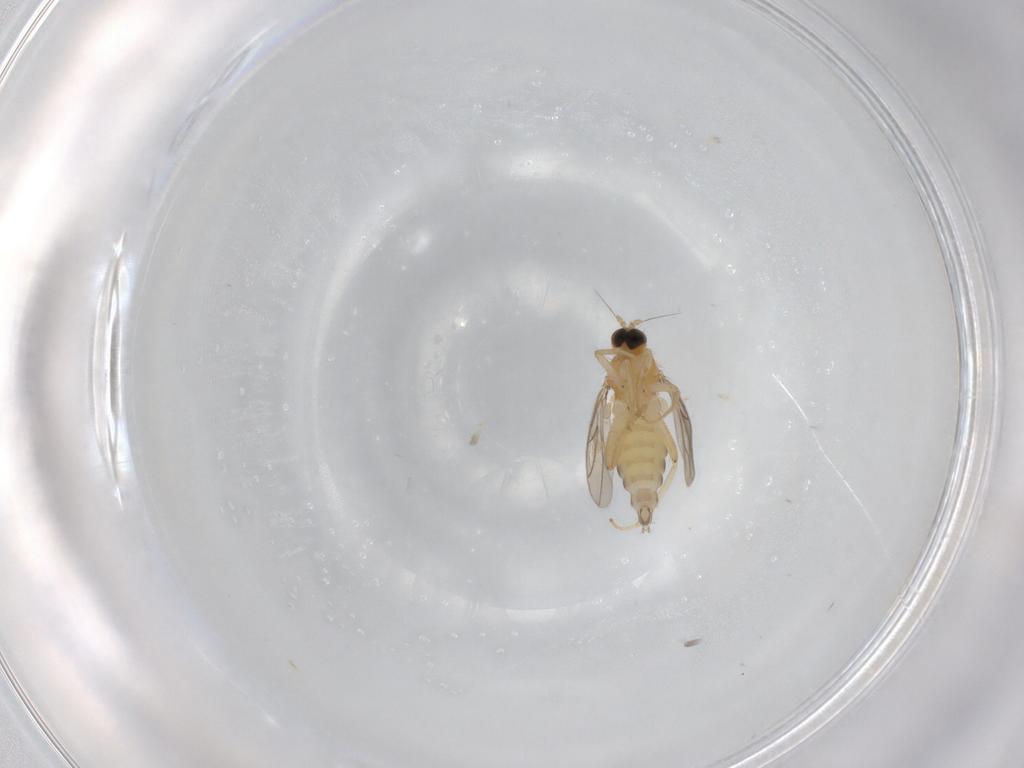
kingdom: Animalia
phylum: Arthropoda
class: Insecta
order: Diptera
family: Hybotidae
